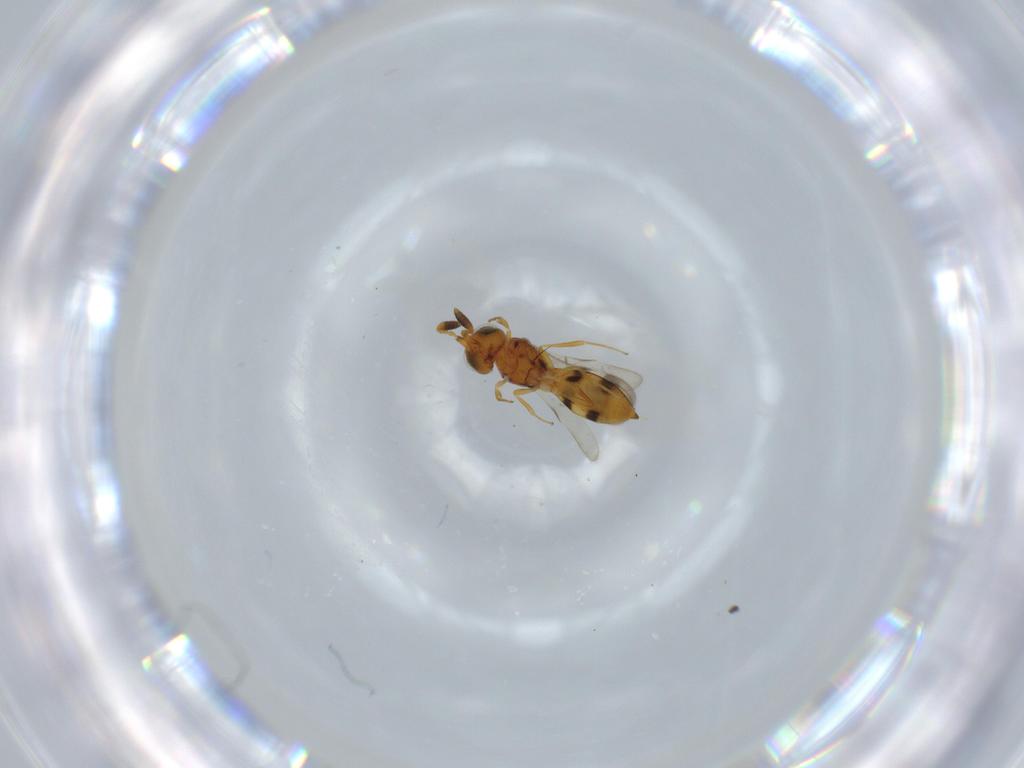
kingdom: Animalia
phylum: Arthropoda
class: Insecta
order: Hymenoptera
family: Scelionidae
